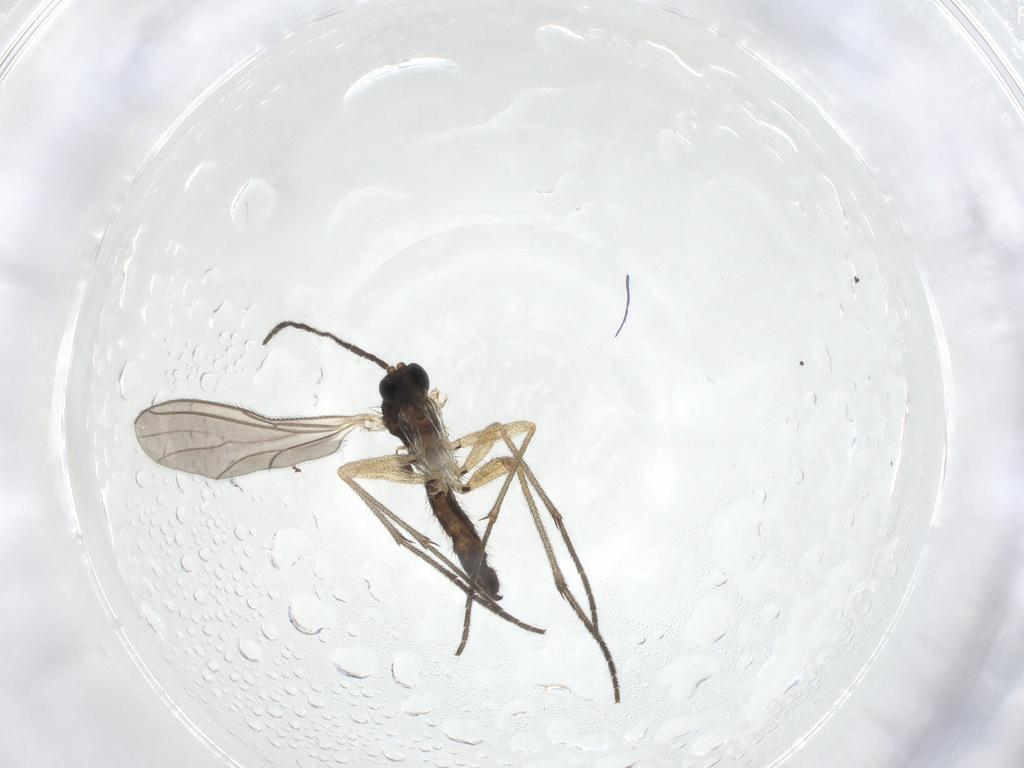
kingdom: Animalia
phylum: Arthropoda
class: Insecta
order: Diptera
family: Sciaridae
